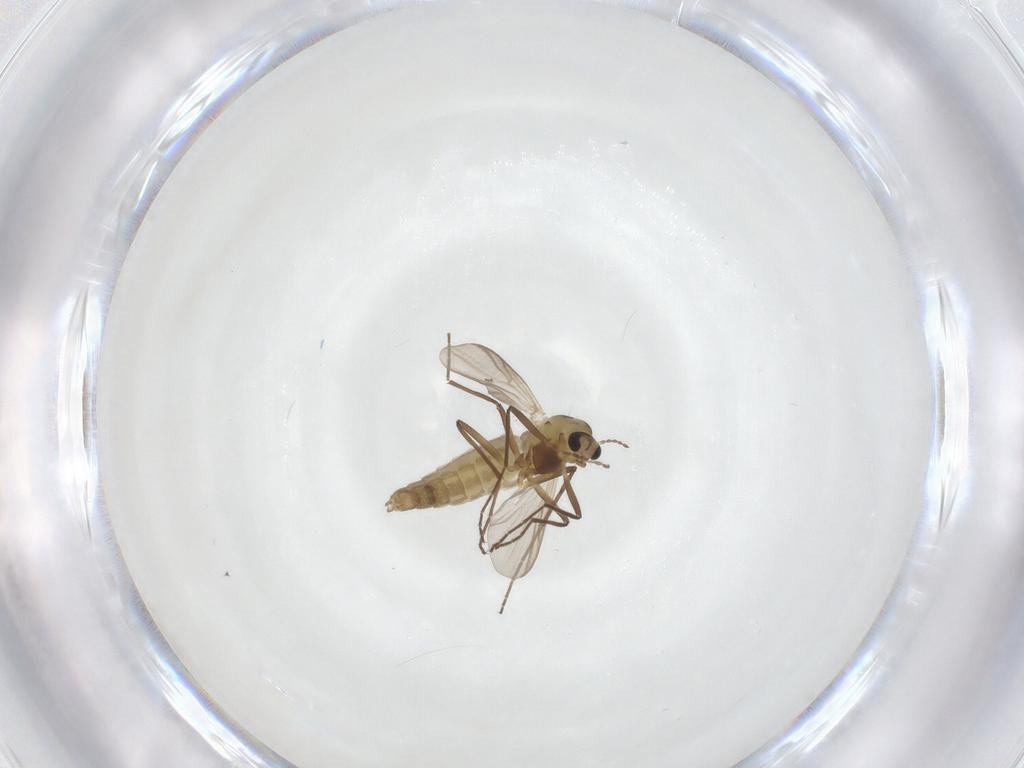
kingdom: Animalia
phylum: Arthropoda
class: Insecta
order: Diptera
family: Chironomidae
